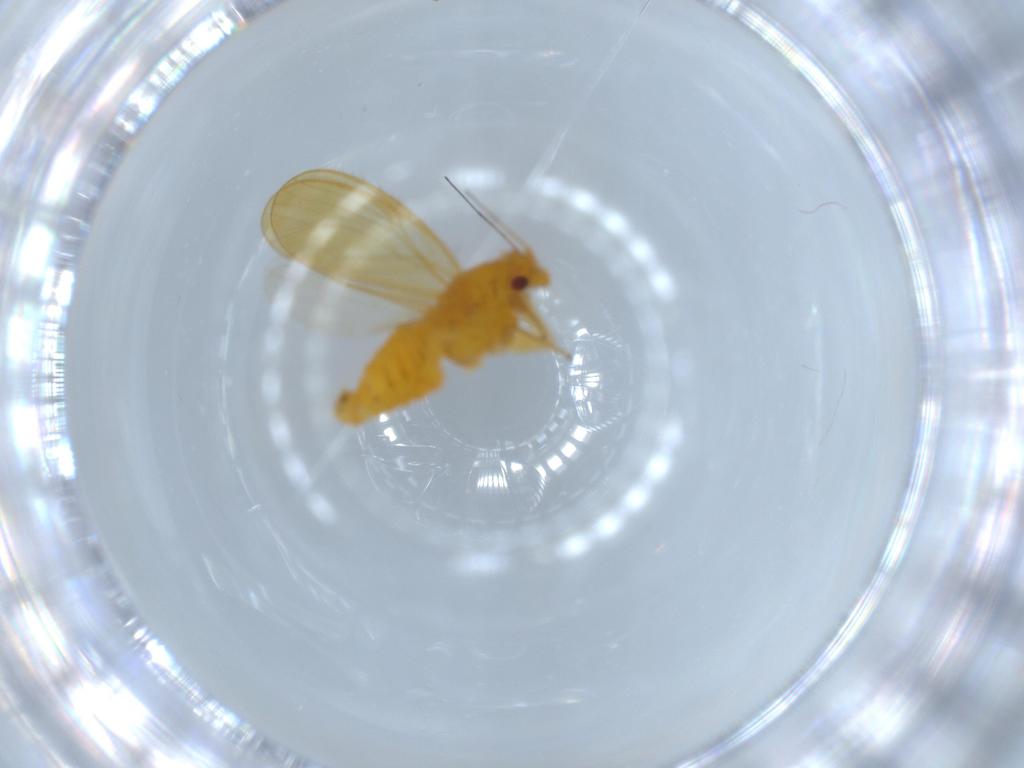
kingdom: Animalia
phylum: Arthropoda
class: Insecta
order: Hemiptera
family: Psyllidae
